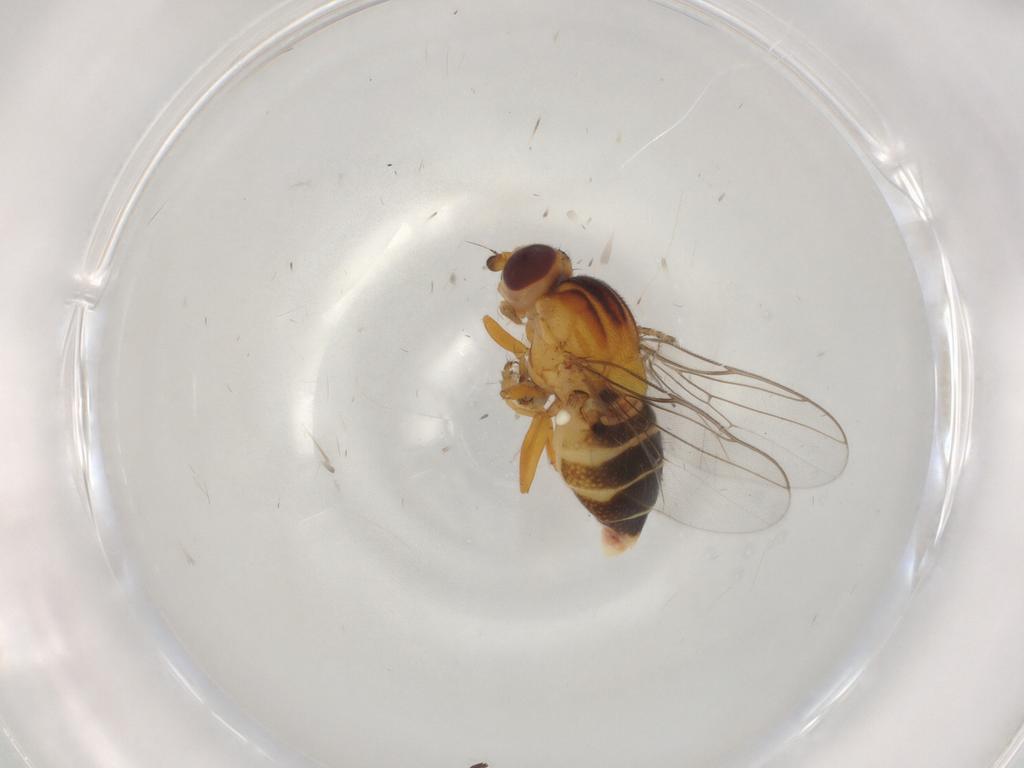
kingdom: Animalia
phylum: Arthropoda
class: Insecta
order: Diptera
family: Chloropidae
